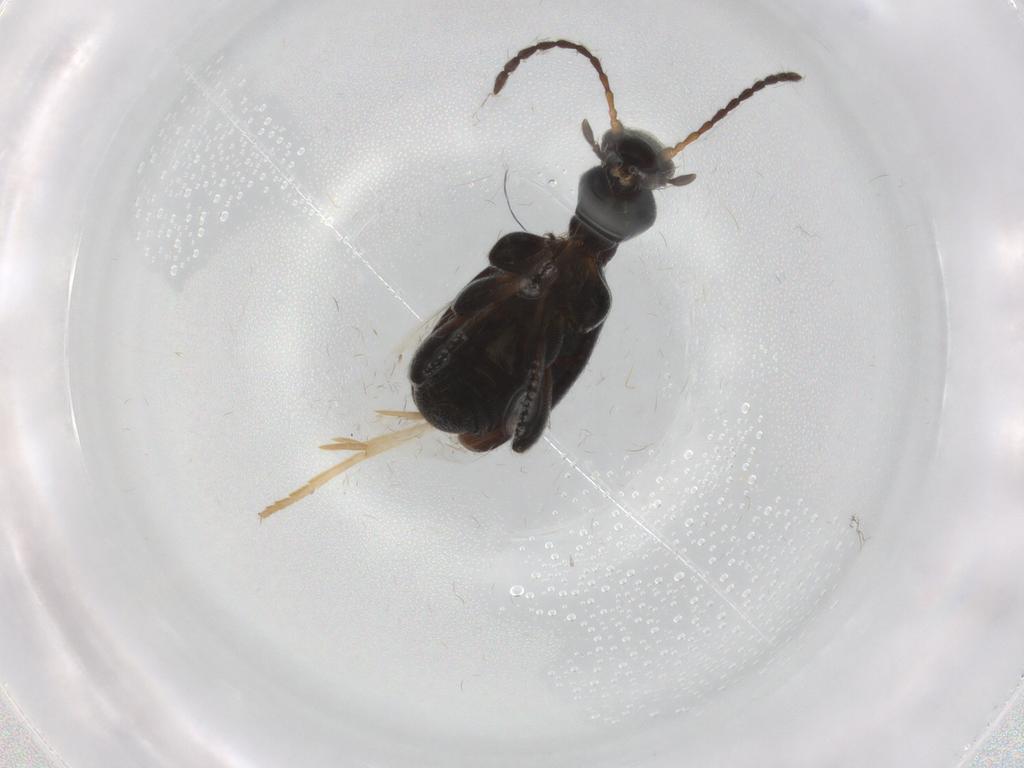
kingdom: Animalia
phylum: Arthropoda
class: Insecta
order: Coleoptera
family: Anthicidae
